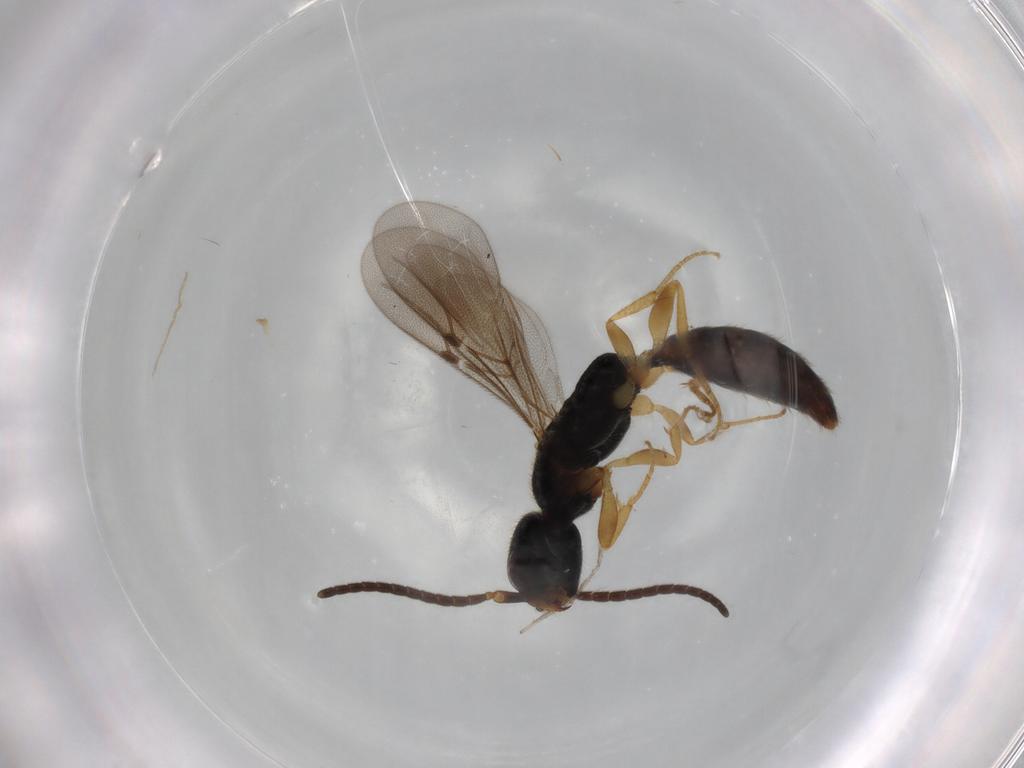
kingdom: Animalia
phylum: Arthropoda
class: Insecta
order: Hymenoptera
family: Bethylidae
